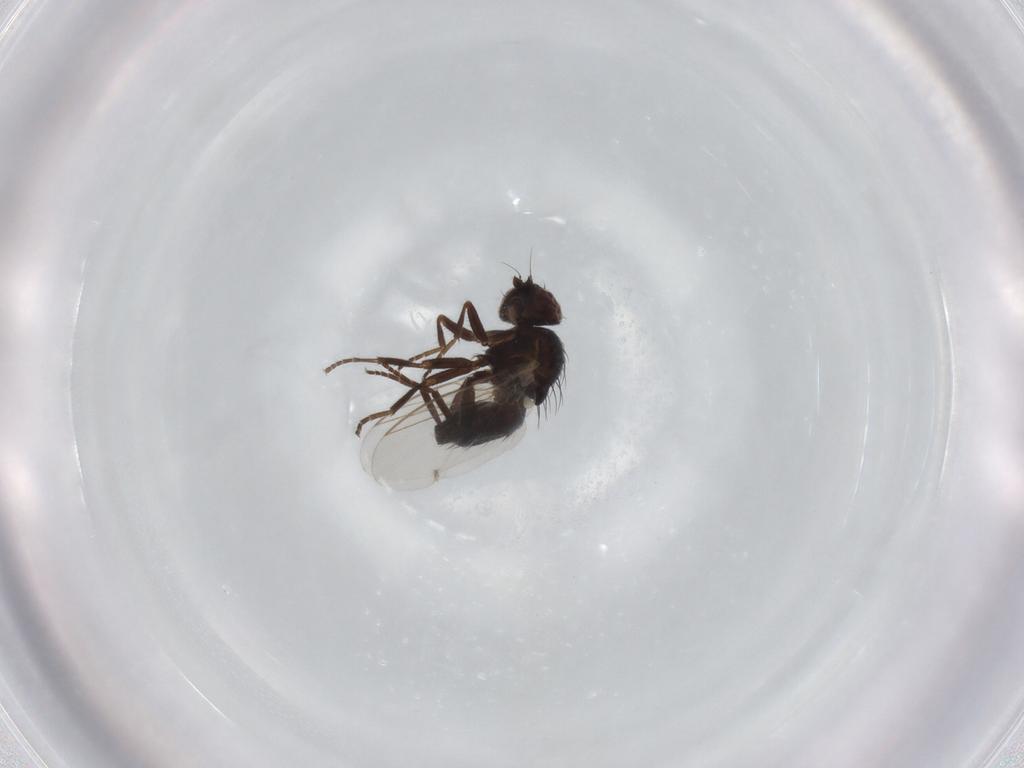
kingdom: Animalia
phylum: Arthropoda
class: Insecta
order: Diptera
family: Agromyzidae
